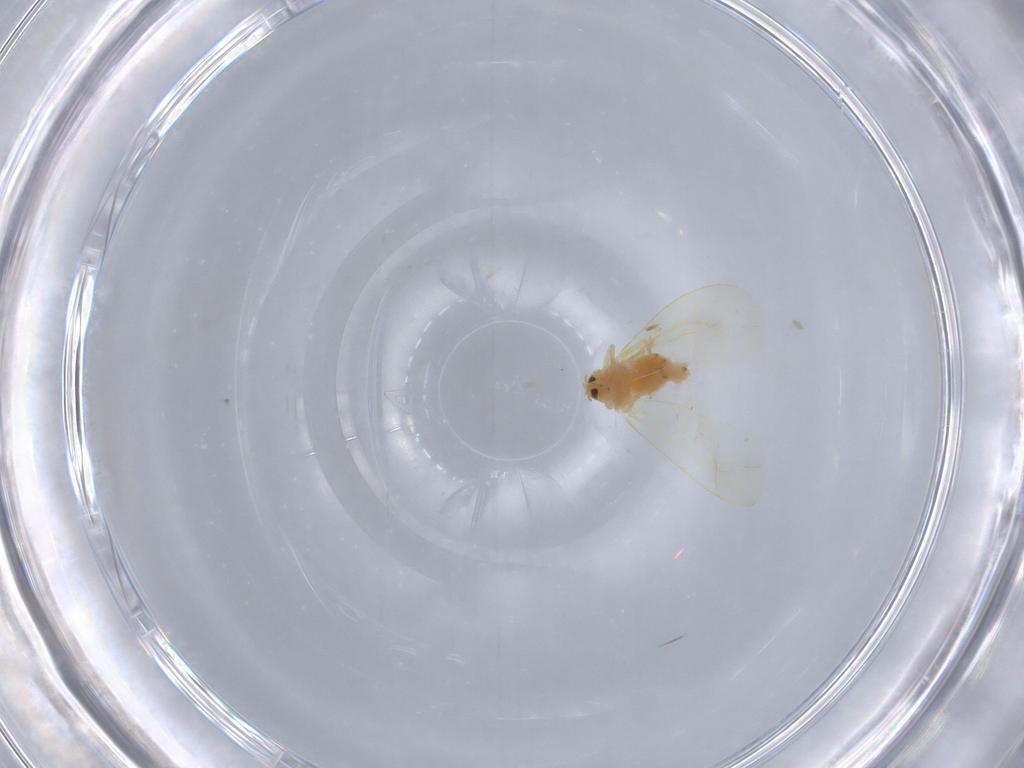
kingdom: Animalia
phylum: Arthropoda
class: Insecta
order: Hemiptera
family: Aleyrodidae
